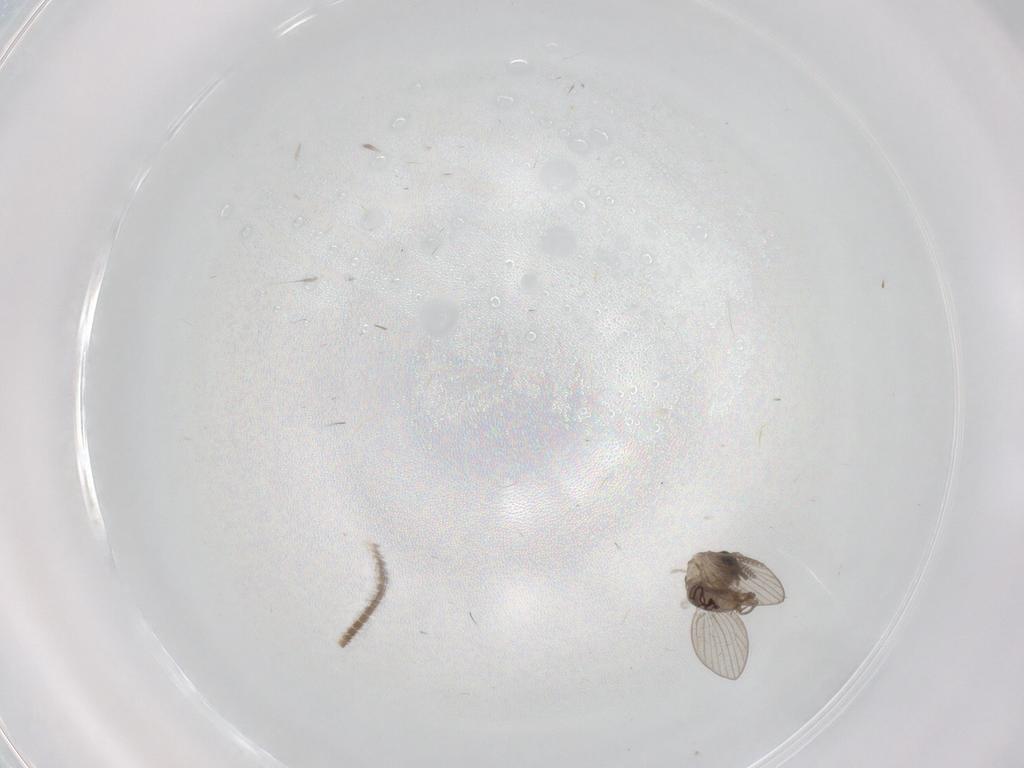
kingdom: Animalia
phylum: Arthropoda
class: Insecta
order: Diptera
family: Psychodidae
